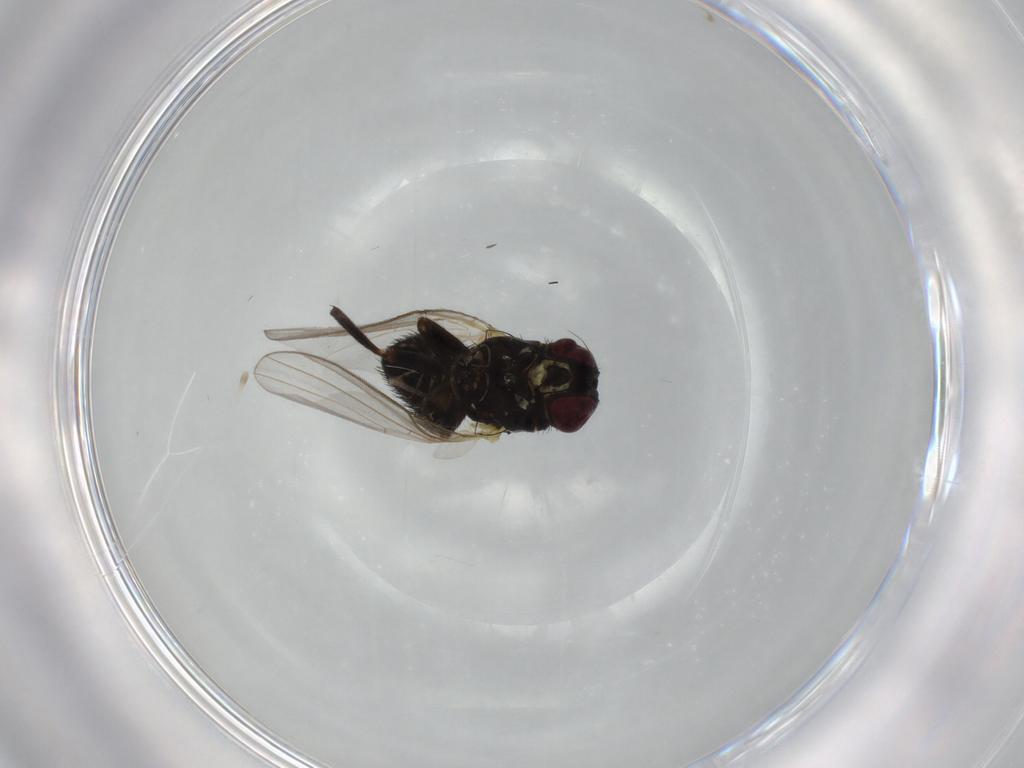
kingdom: Animalia
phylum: Arthropoda
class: Insecta
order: Diptera
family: Agromyzidae
